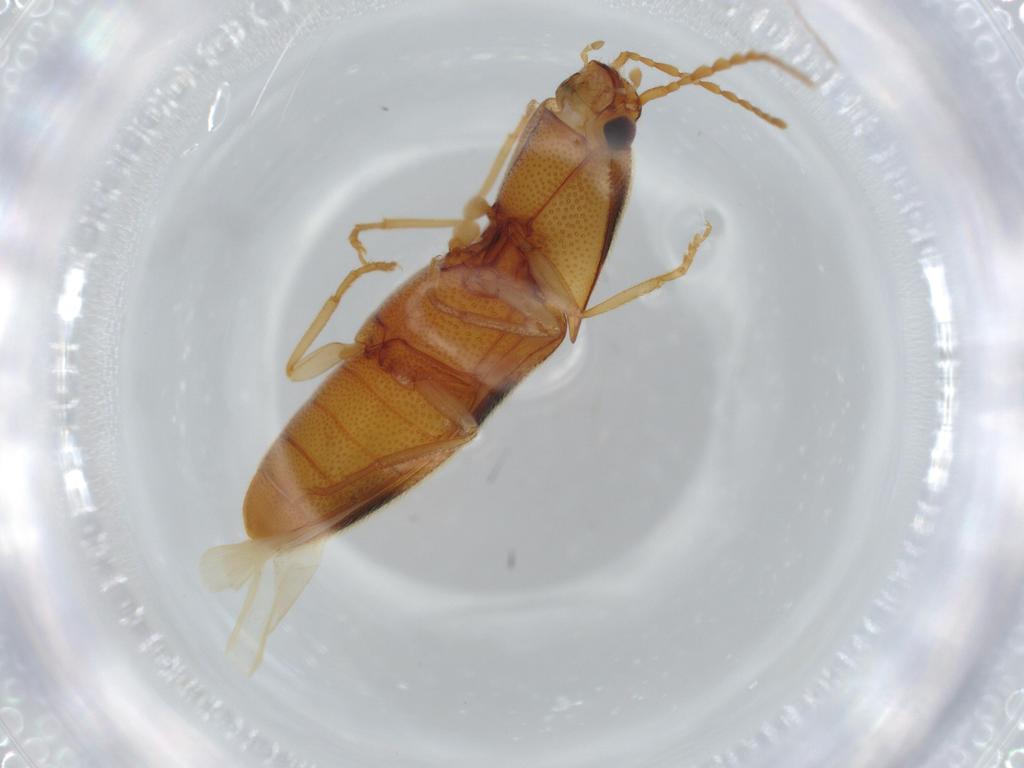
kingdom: Animalia
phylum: Arthropoda
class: Insecta
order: Coleoptera
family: Elateridae
